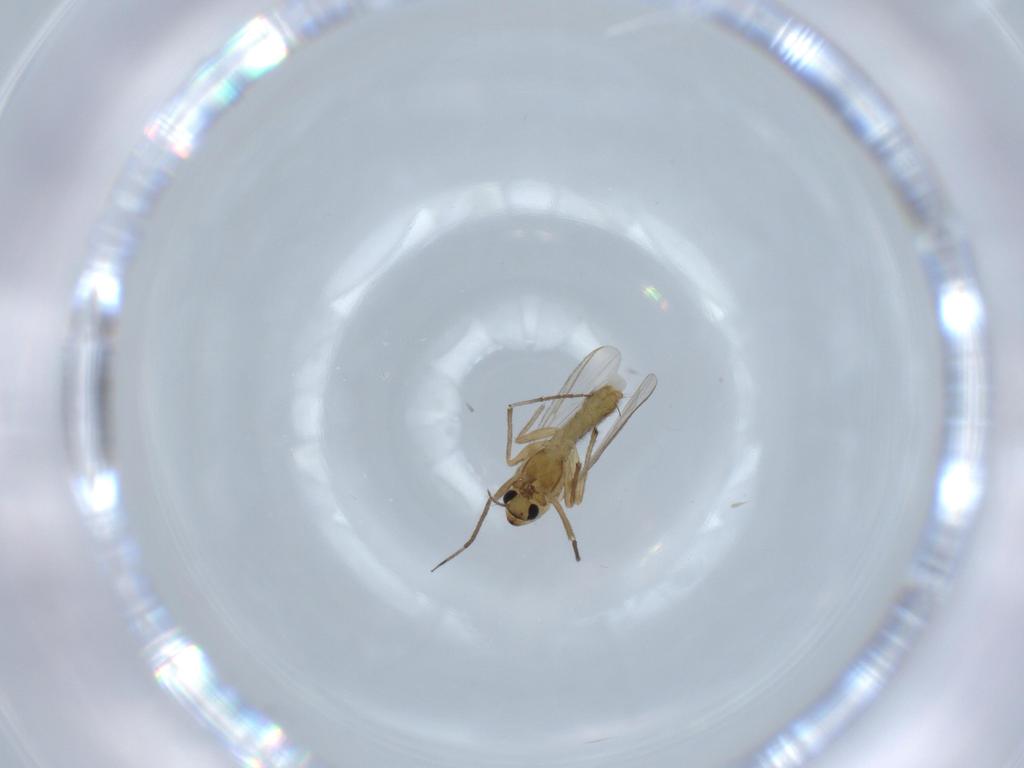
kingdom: Animalia
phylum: Arthropoda
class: Insecta
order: Diptera
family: Chironomidae
